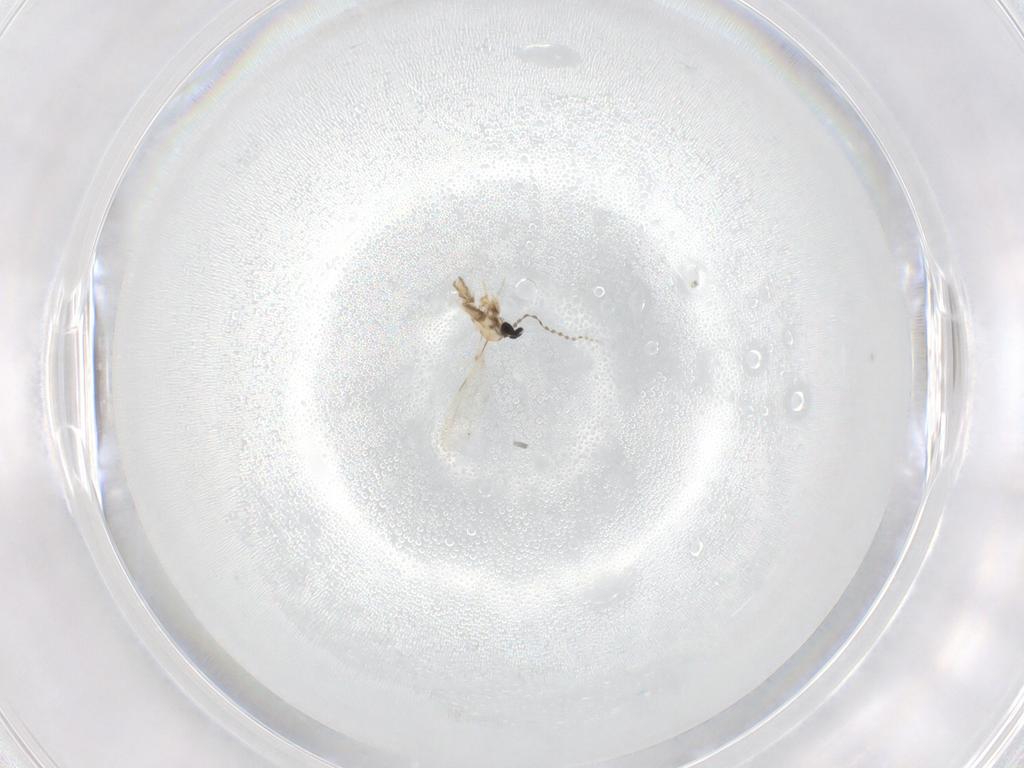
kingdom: Animalia
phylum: Arthropoda
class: Insecta
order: Diptera
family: Cecidomyiidae
